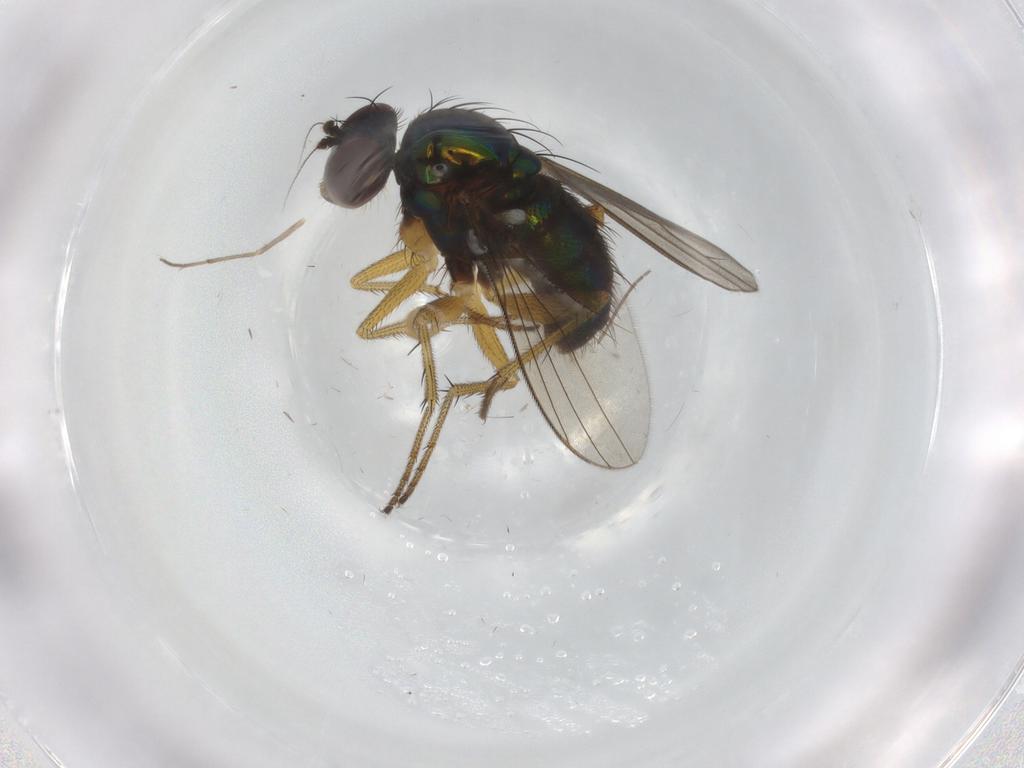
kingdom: Animalia
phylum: Arthropoda
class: Insecta
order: Diptera
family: Dolichopodidae
